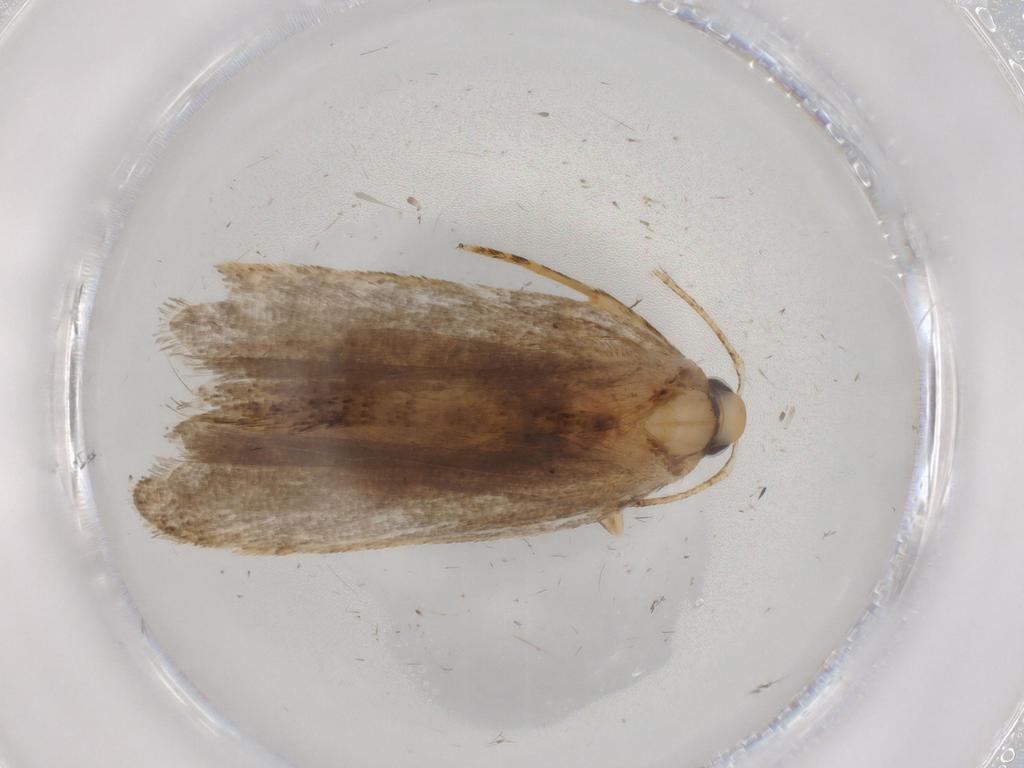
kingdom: Animalia
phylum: Arthropoda
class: Insecta
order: Lepidoptera
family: Autostichidae
